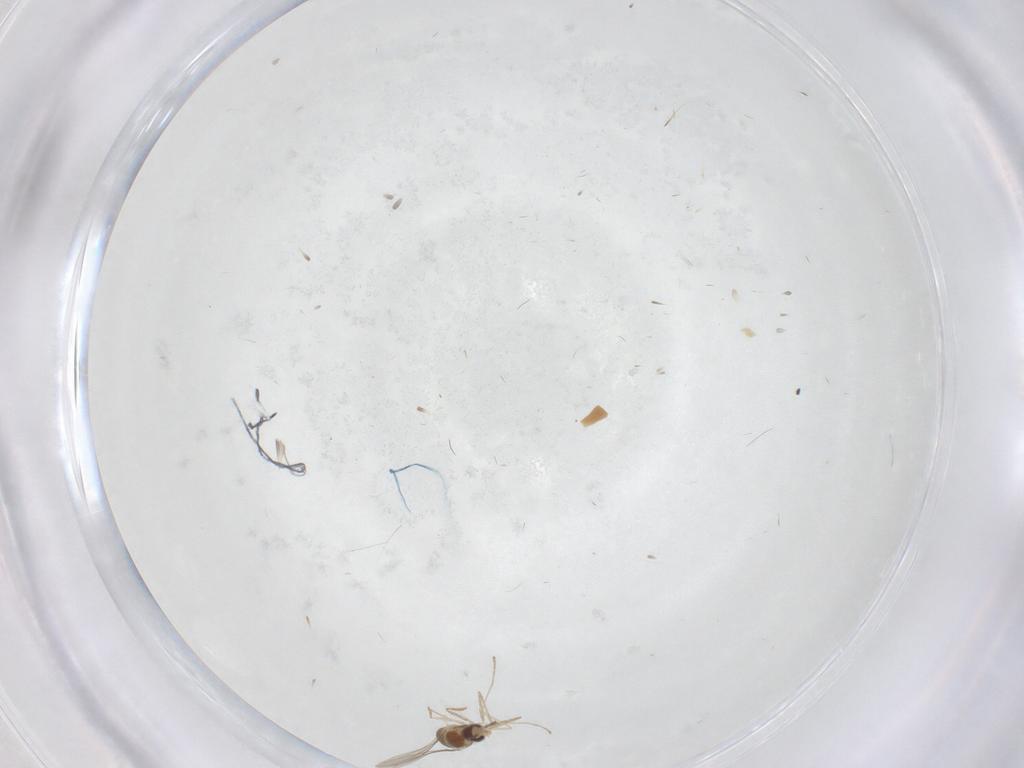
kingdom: Animalia
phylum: Arthropoda
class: Insecta
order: Diptera
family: Cecidomyiidae
